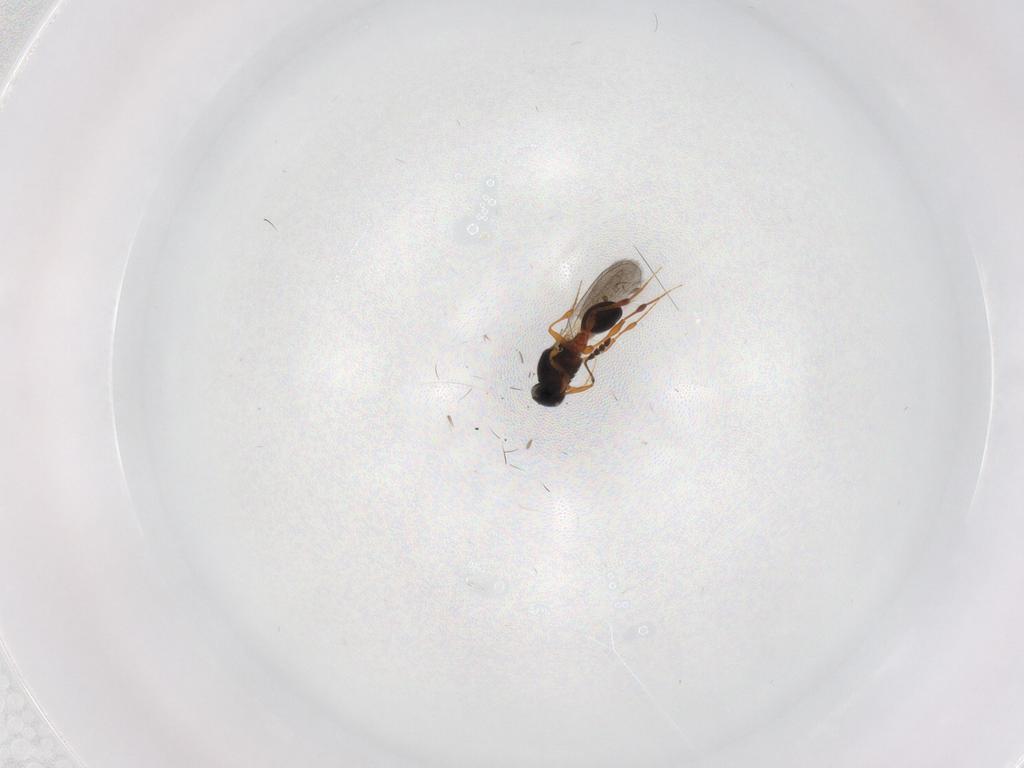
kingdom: Animalia
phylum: Arthropoda
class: Insecta
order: Hymenoptera
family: Platygastridae
